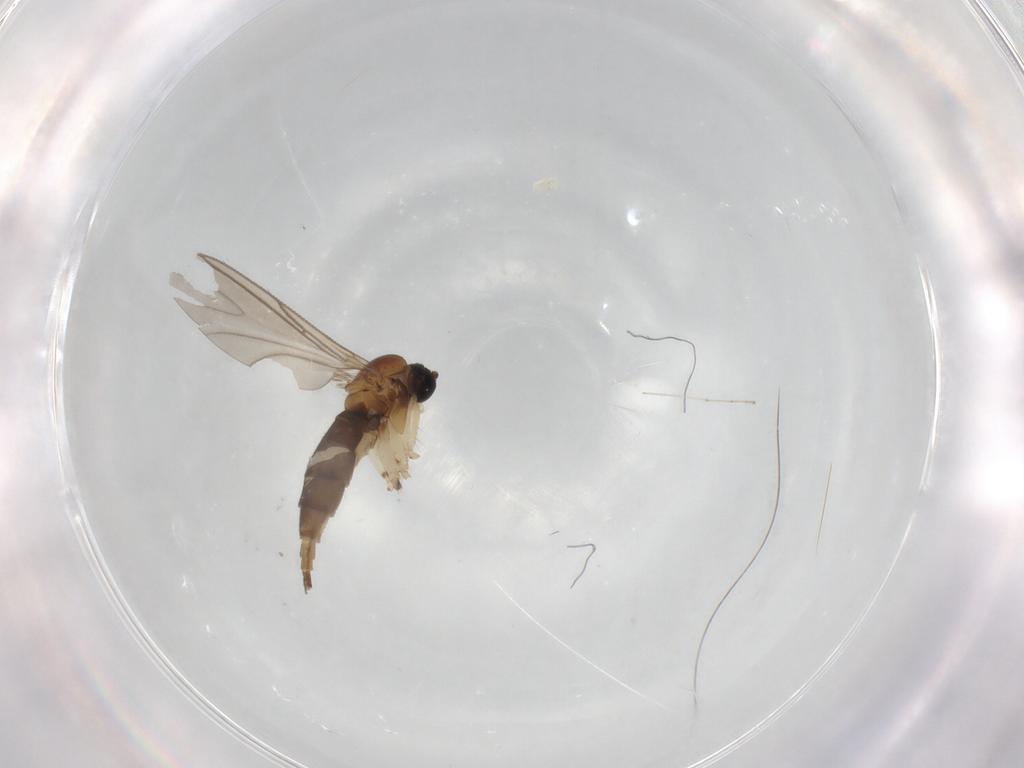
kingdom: Animalia
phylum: Arthropoda
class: Insecta
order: Diptera
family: Sciaridae
